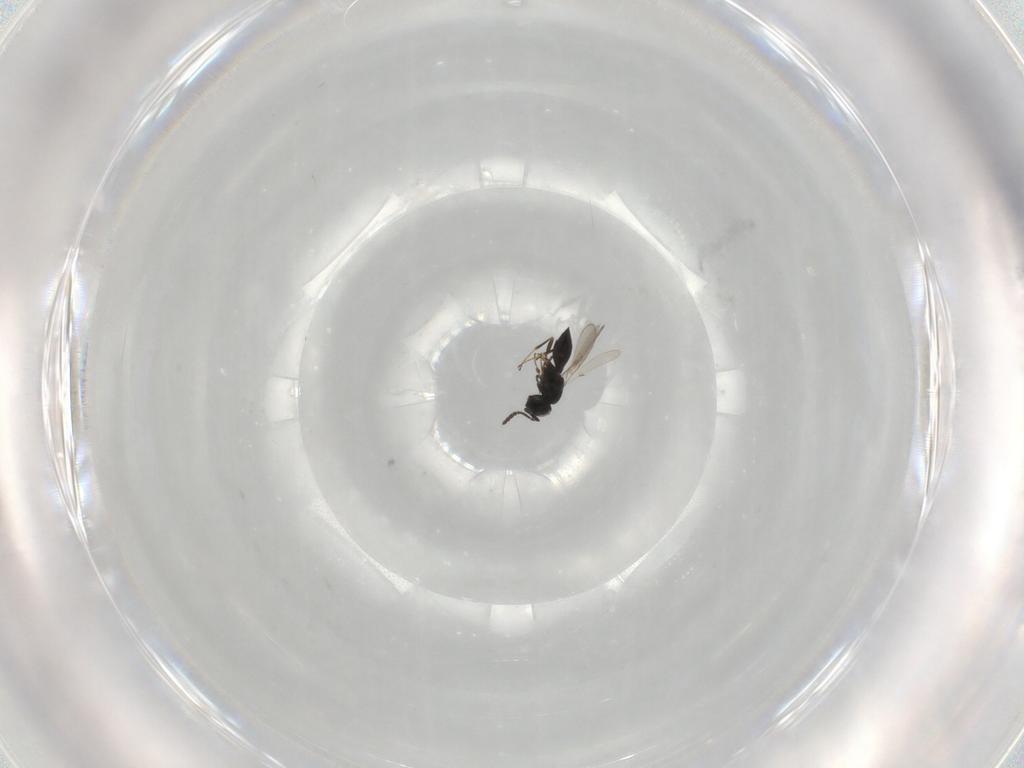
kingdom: Animalia
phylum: Arthropoda
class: Insecta
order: Hymenoptera
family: Scelionidae
